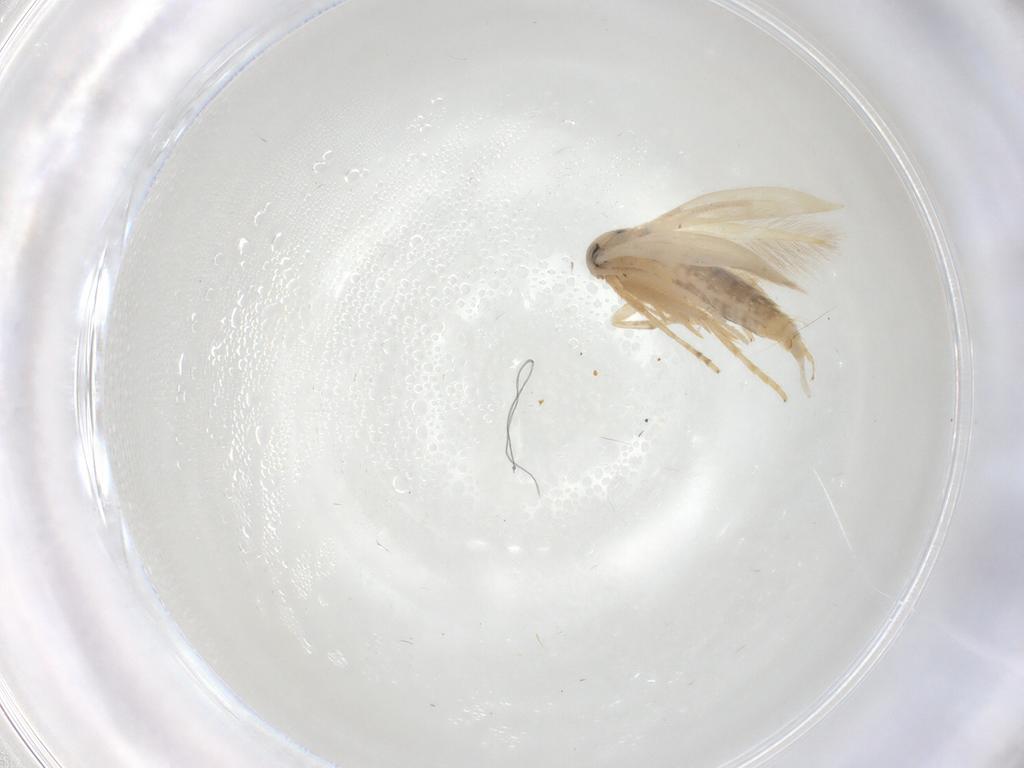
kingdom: Animalia
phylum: Arthropoda
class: Insecta
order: Lepidoptera
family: Opostegidae
